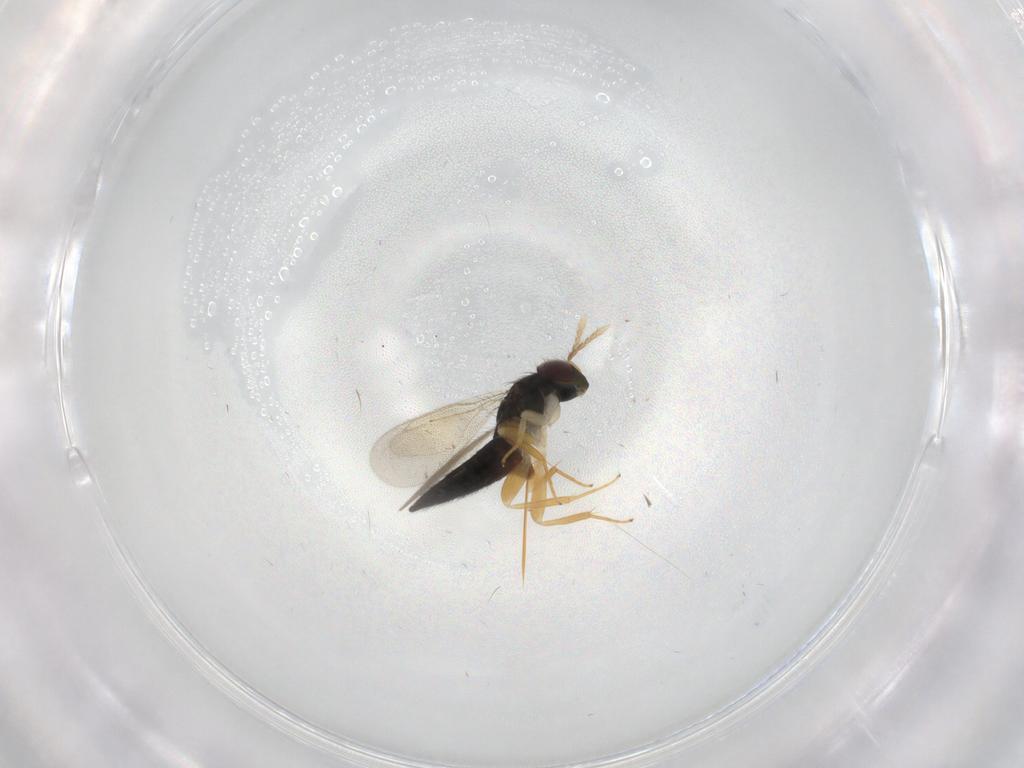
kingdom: Animalia
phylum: Arthropoda
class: Insecta
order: Hymenoptera
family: Eulophidae
